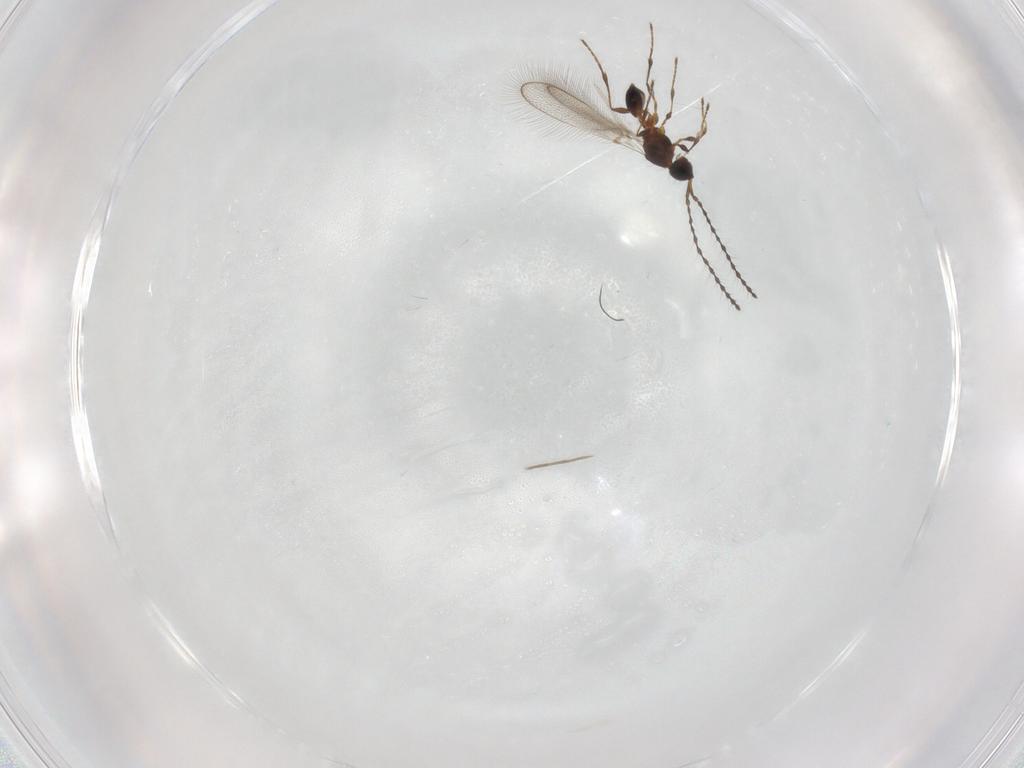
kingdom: Animalia
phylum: Arthropoda
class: Insecta
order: Hymenoptera
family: Diapriidae
